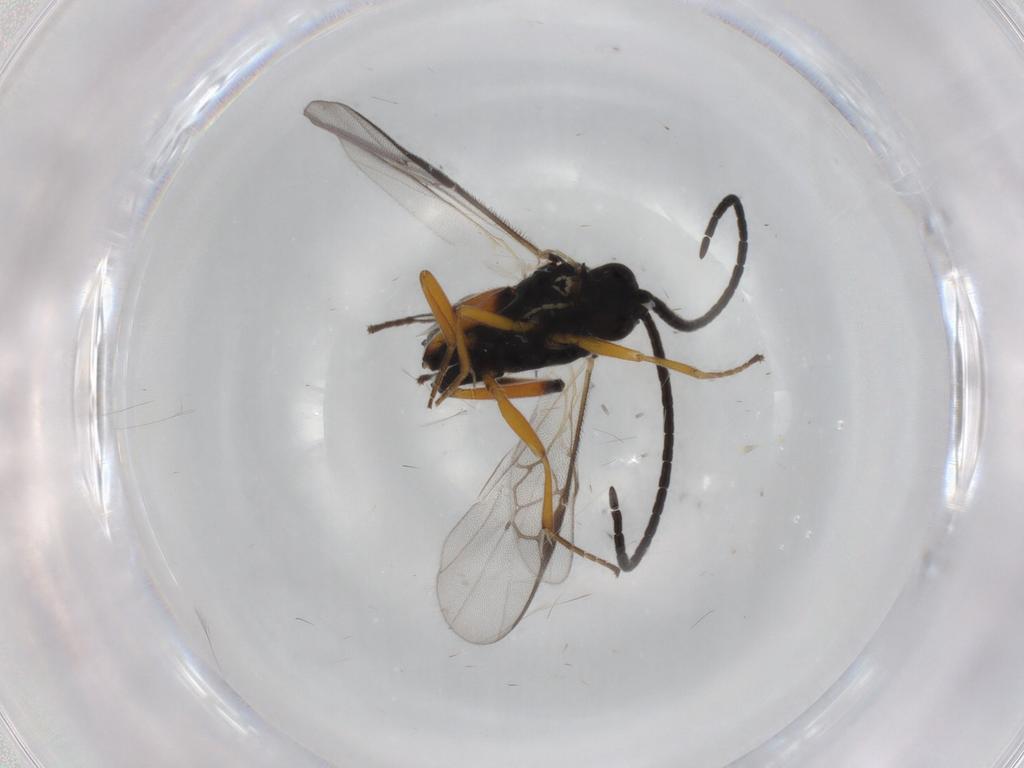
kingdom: Animalia
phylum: Arthropoda
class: Insecta
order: Hymenoptera
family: Braconidae
